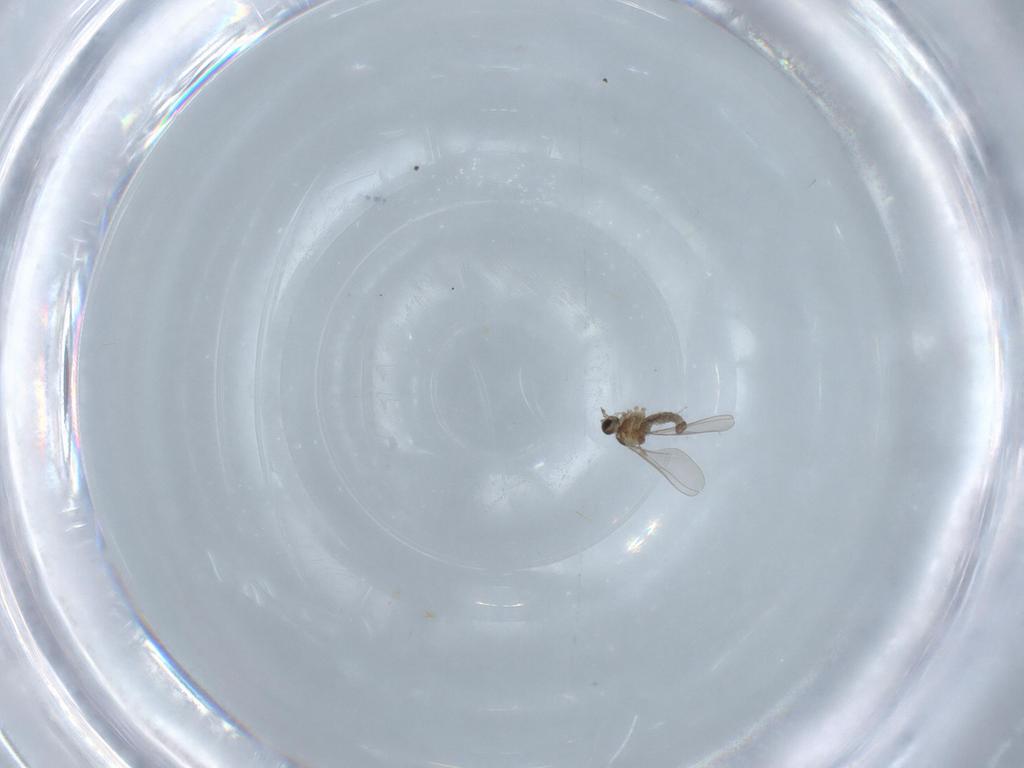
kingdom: Animalia
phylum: Arthropoda
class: Insecta
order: Diptera
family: Cecidomyiidae
